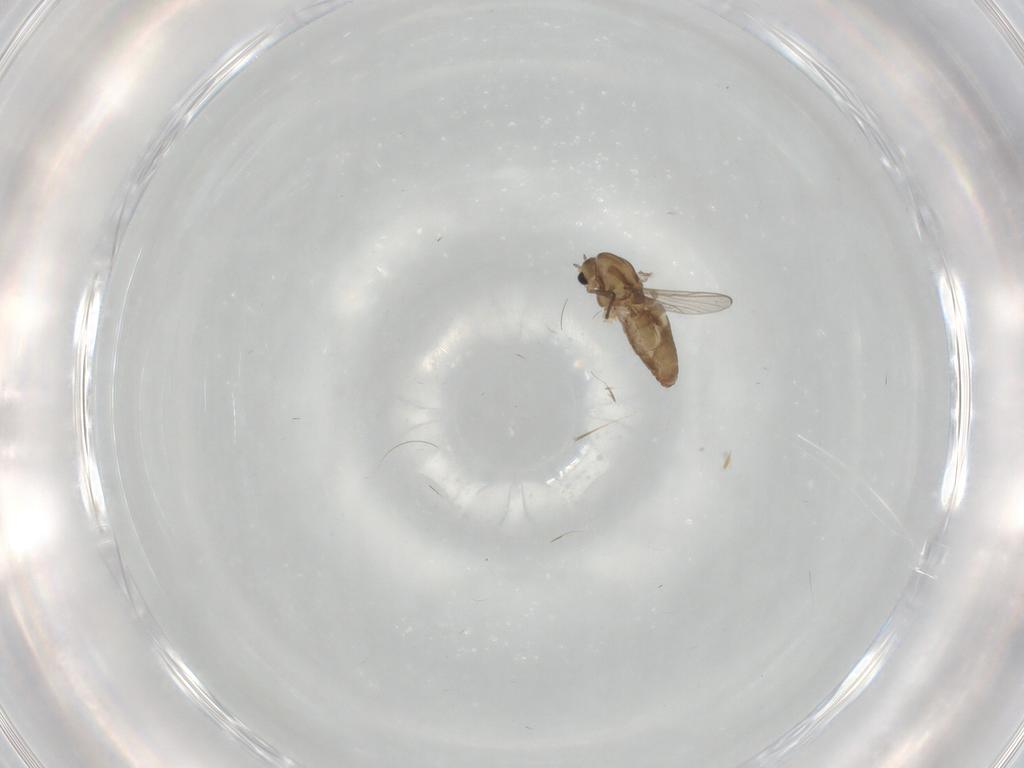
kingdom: Animalia
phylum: Arthropoda
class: Insecta
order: Diptera
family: Chironomidae
